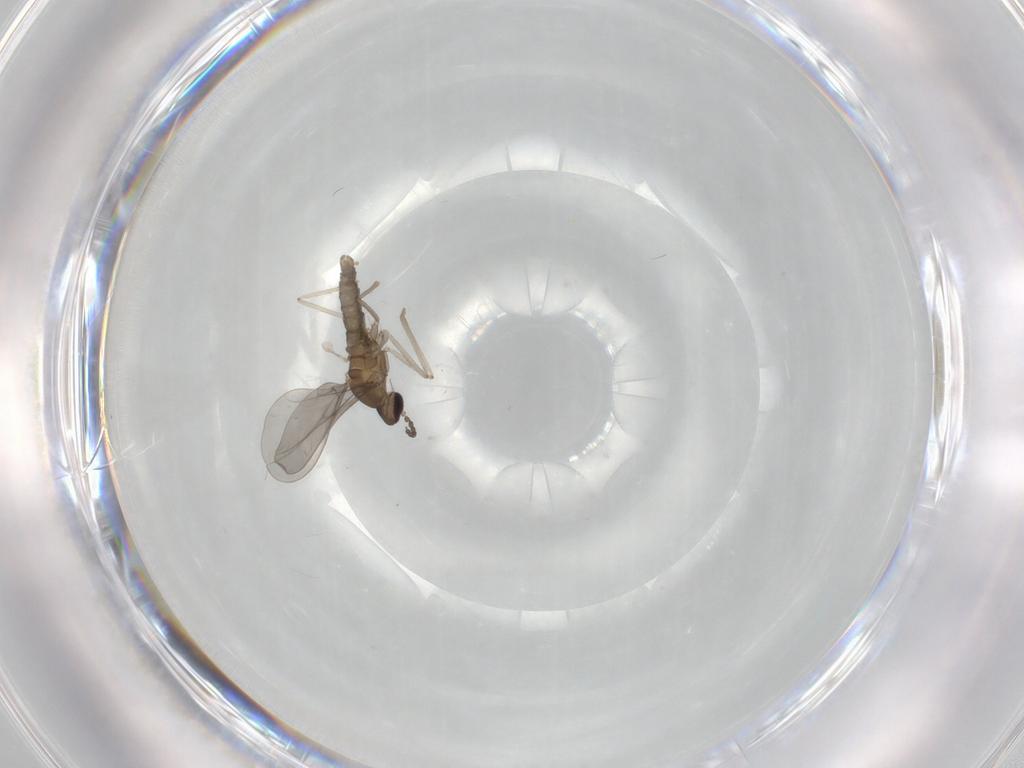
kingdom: Animalia
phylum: Arthropoda
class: Insecta
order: Diptera
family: Cecidomyiidae
